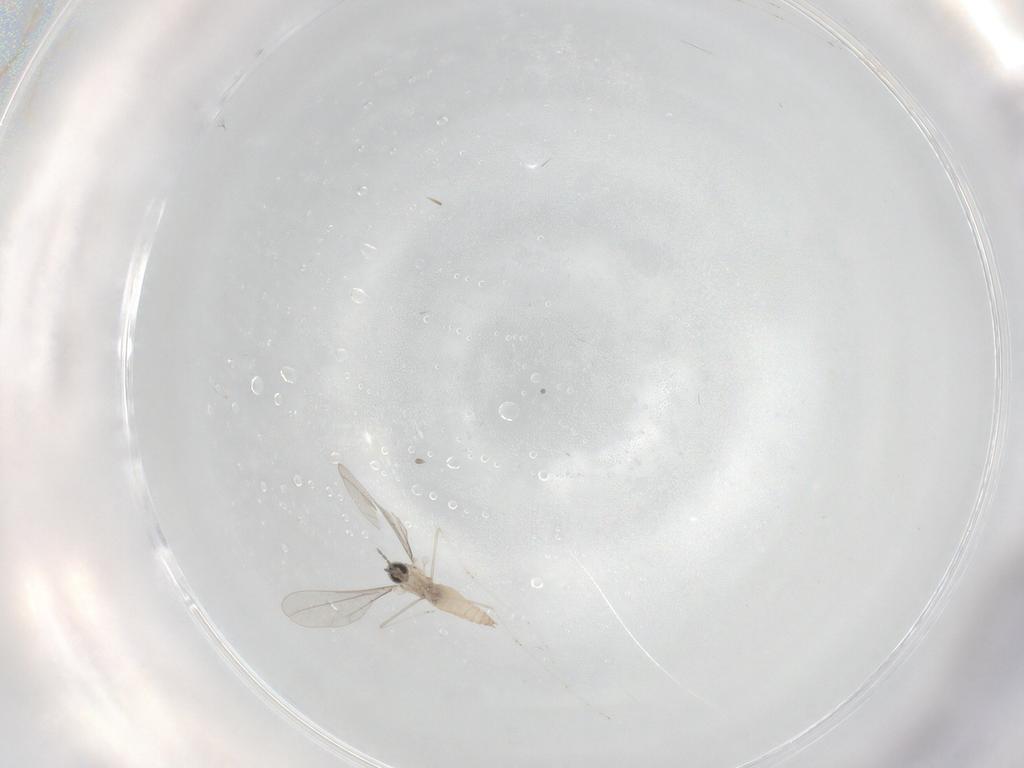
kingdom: Animalia
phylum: Arthropoda
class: Insecta
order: Diptera
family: Cecidomyiidae
